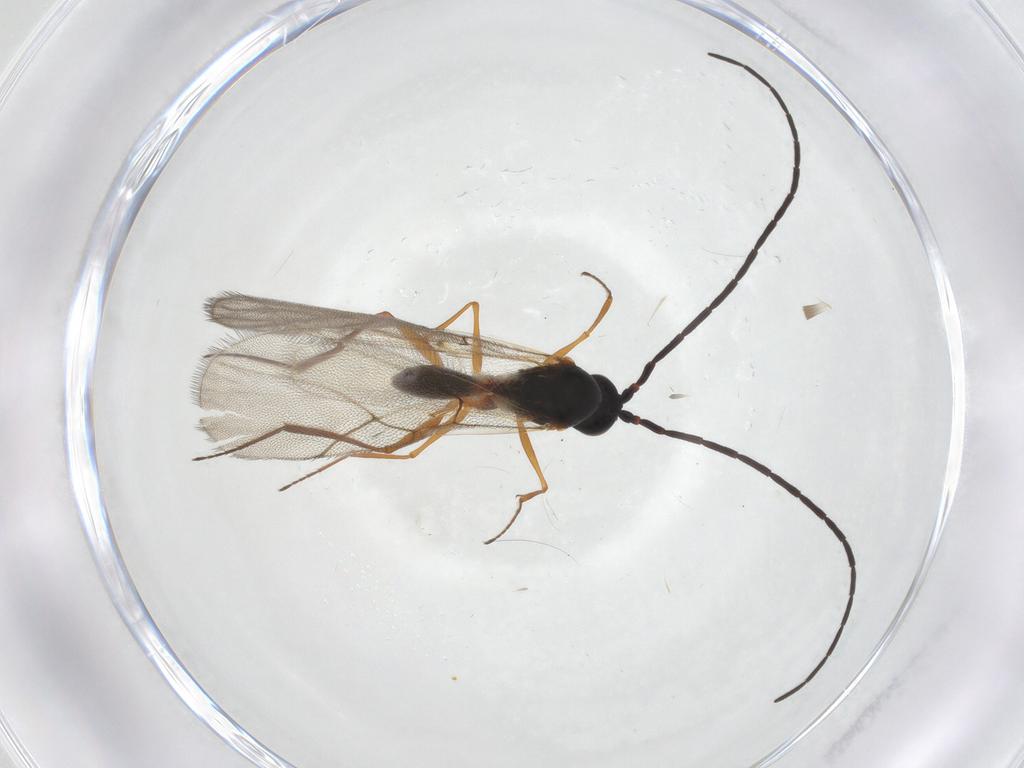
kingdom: Animalia
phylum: Arthropoda
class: Insecta
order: Hymenoptera
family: Figitidae
